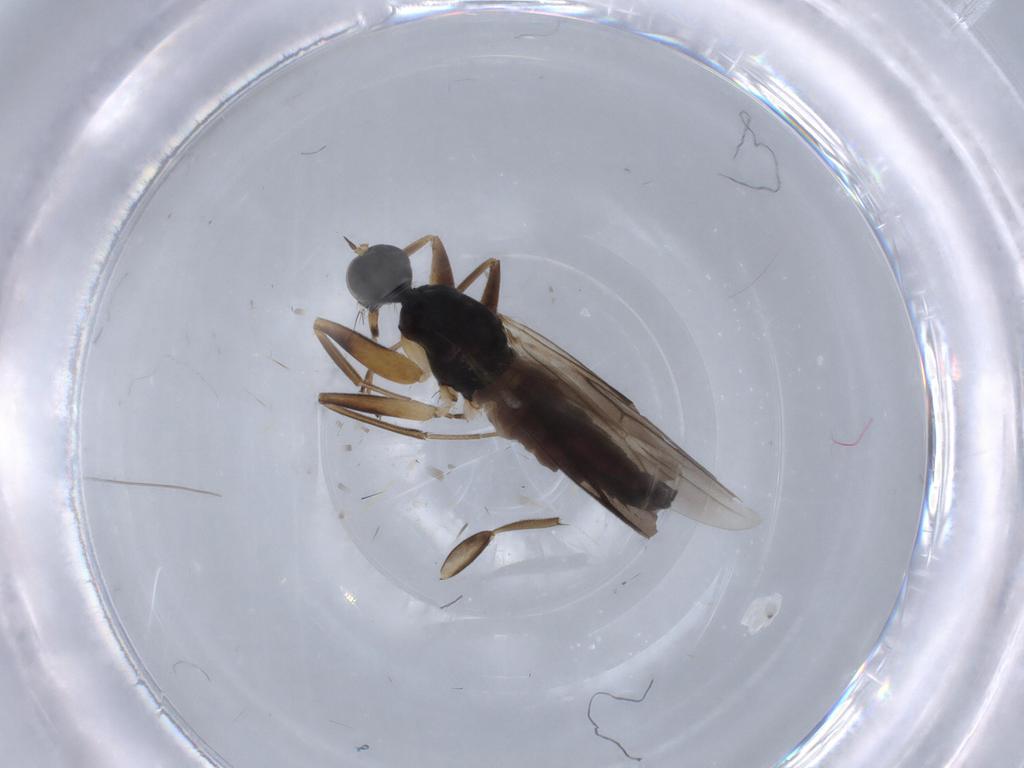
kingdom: Animalia
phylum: Arthropoda
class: Insecta
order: Diptera
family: Hybotidae
